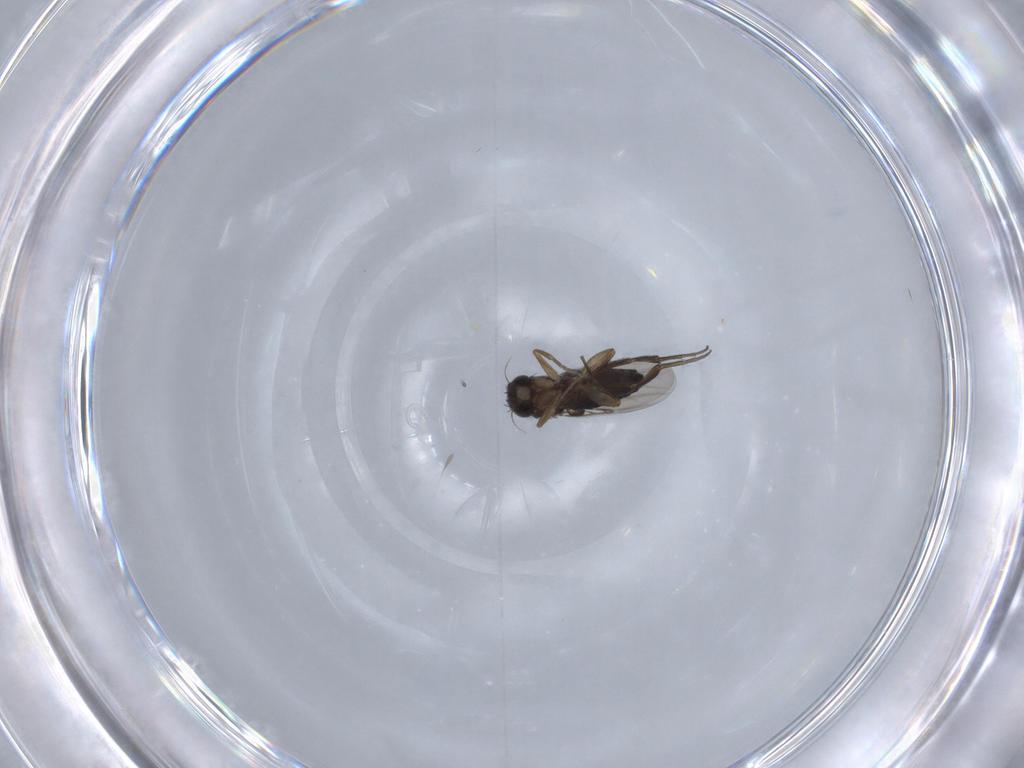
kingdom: Animalia
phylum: Arthropoda
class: Insecta
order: Diptera
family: Phoridae
